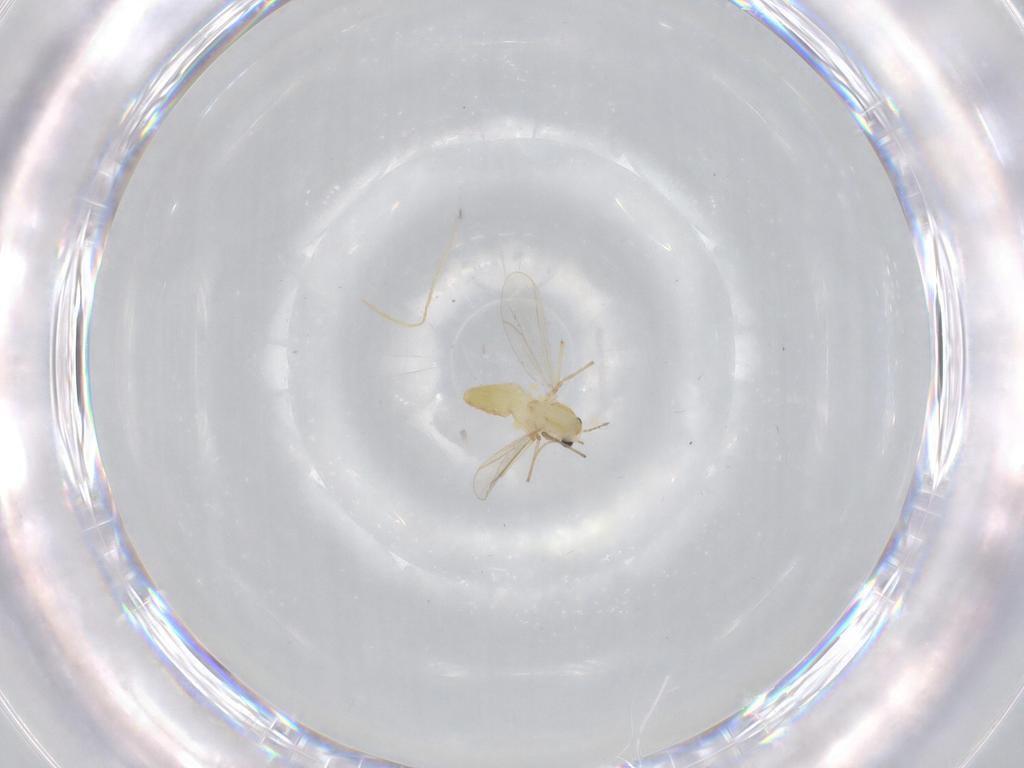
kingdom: Animalia
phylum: Arthropoda
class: Insecta
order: Diptera
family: Chironomidae
